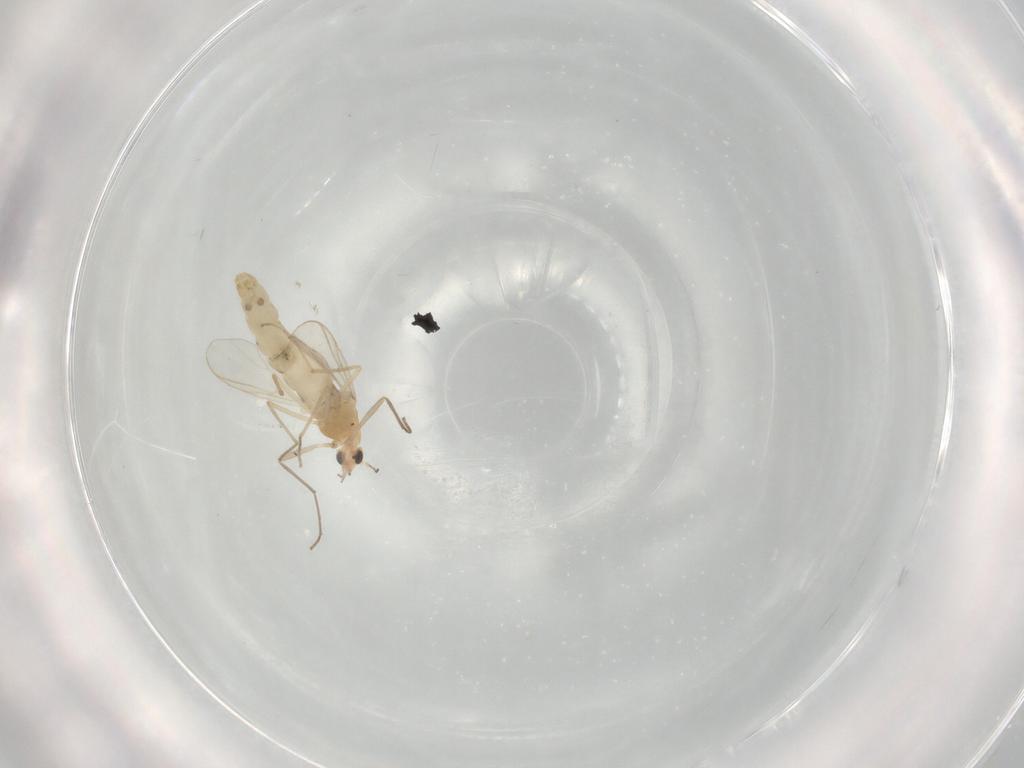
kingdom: Animalia
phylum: Arthropoda
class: Insecta
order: Diptera
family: Chironomidae
